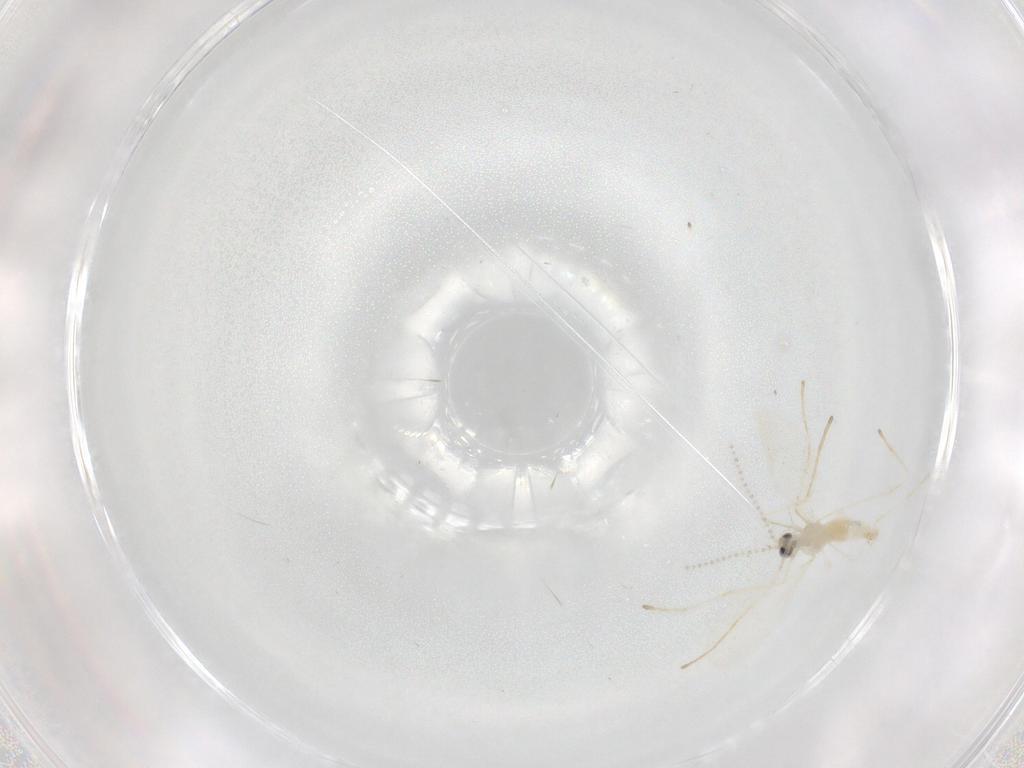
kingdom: Animalia
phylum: Arthropoda
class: Insecta
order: Diptera
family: Cecidomyiidae
